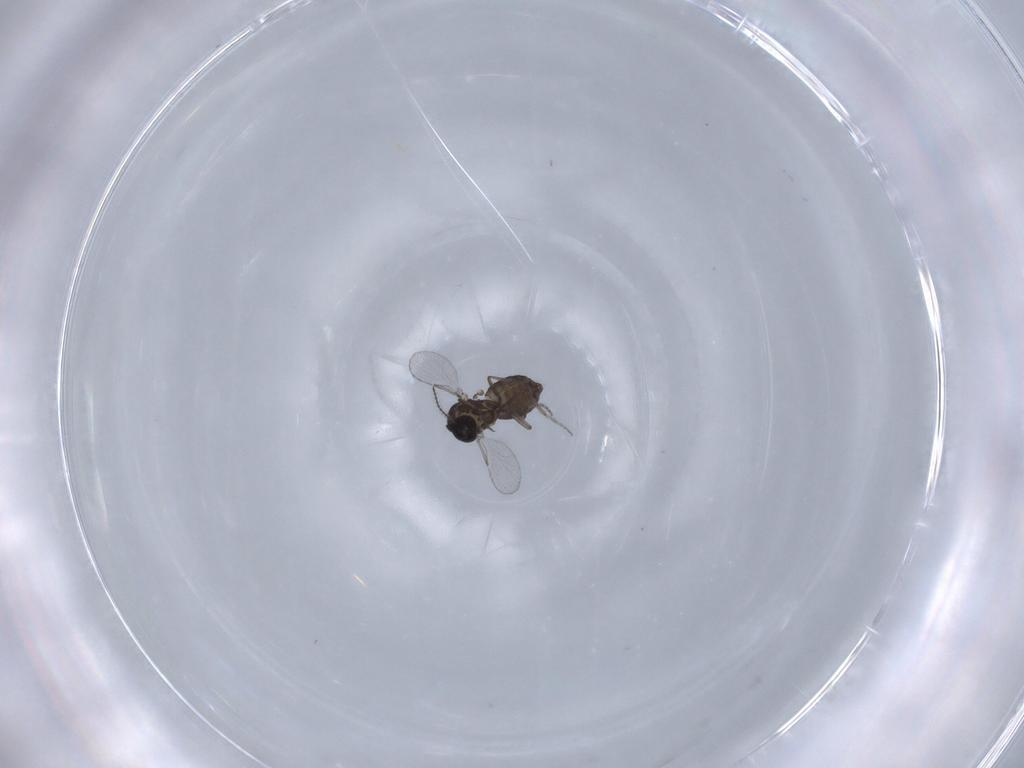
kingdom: Animalia
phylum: Arthropoda
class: Insecta
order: Diptera
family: Ceratopogonidae
